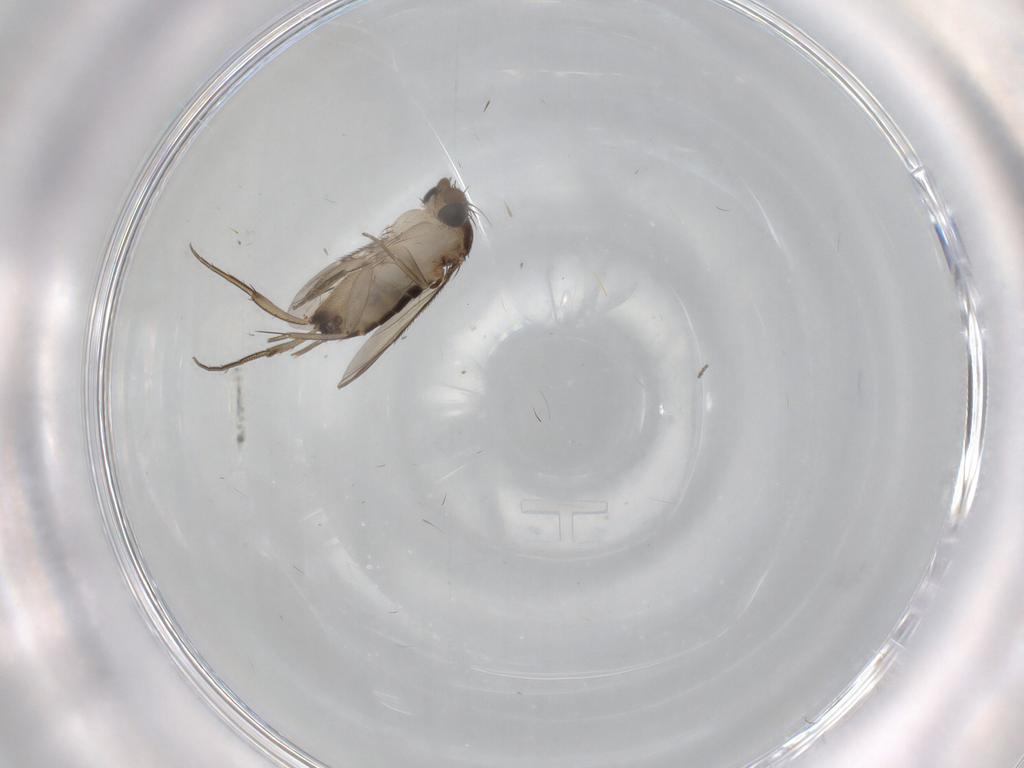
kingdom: Animalia
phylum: Arthropoda
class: Insecta
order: Diptera
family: Phoridae
